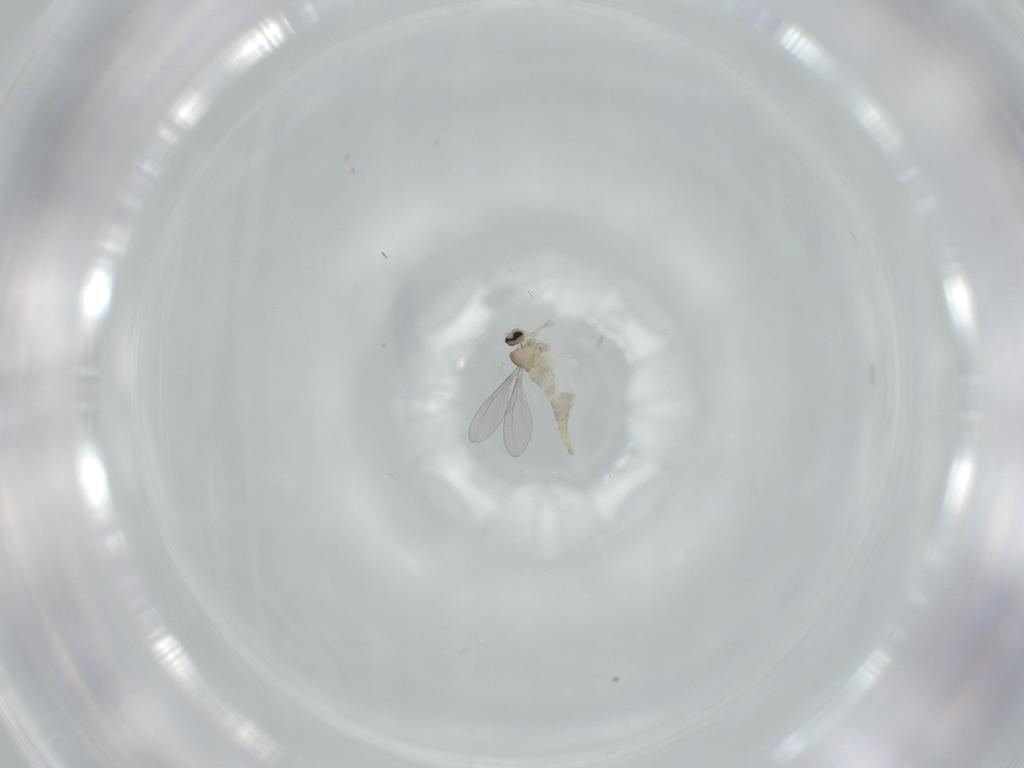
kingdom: Animalia
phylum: Arthropoda
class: Insecta
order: Diptera
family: Cecidomyiidae
